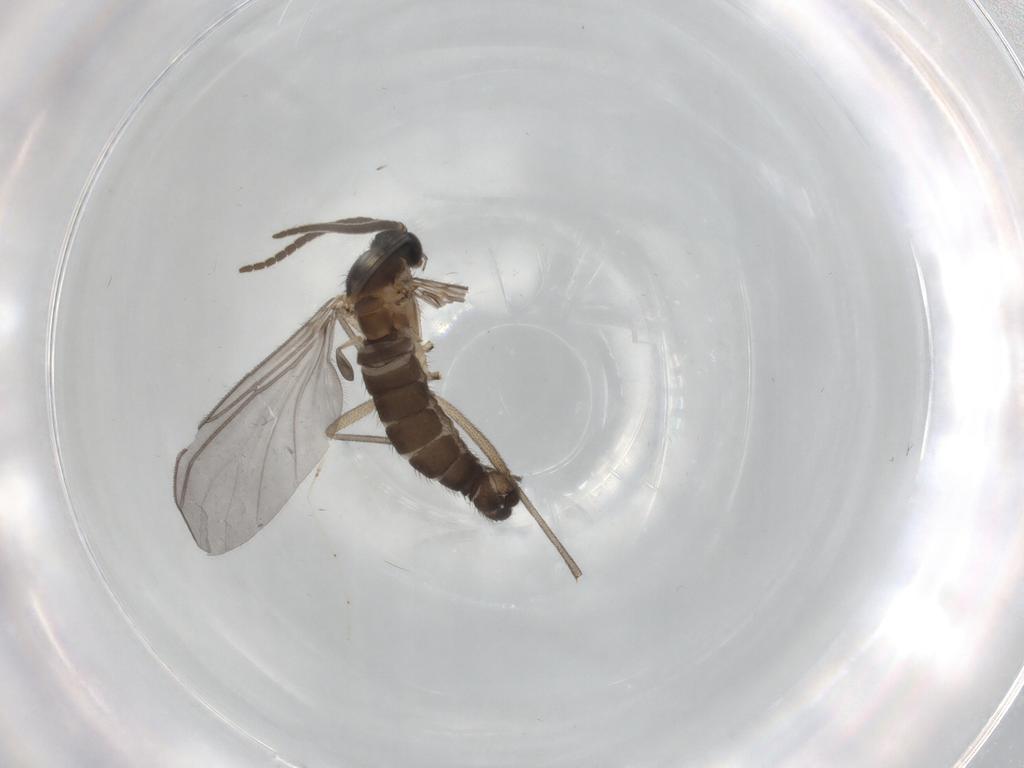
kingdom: Animalia
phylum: Arthropoda
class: Insecta
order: Diptera
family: Cecidomyiidae
